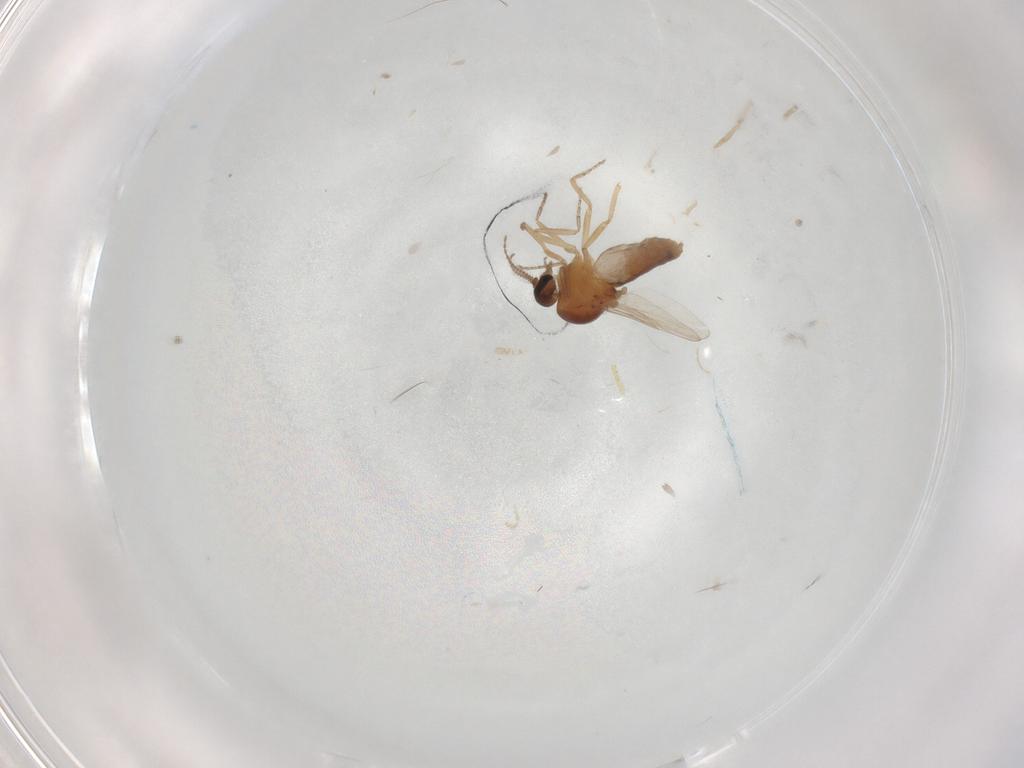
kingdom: Animalia
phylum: Arthropoda
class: Insecta
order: Diptera
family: Ceratopogonidae
